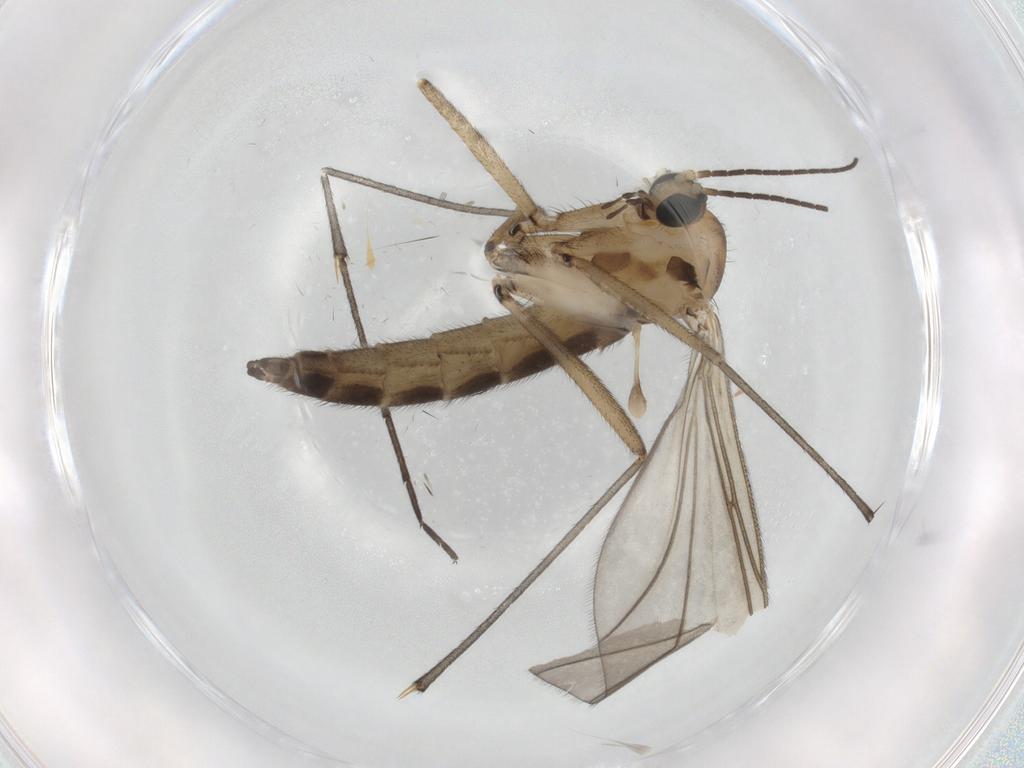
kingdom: Animalia
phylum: Arthropoda
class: Insecta
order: Diptera
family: Sciaridae
